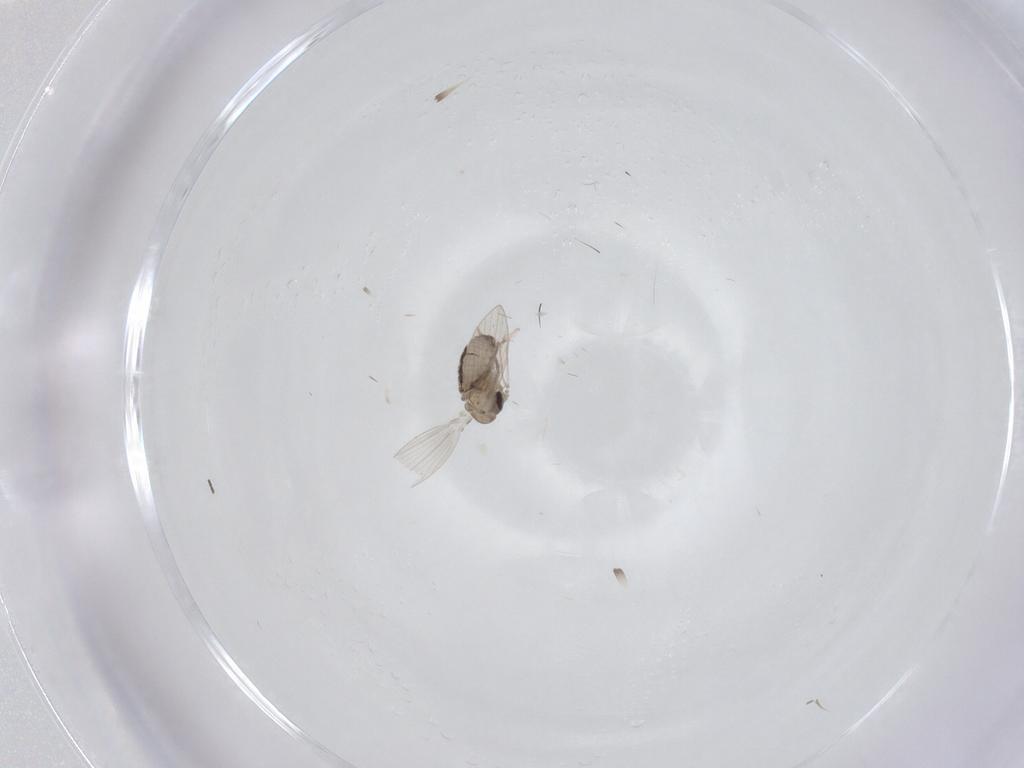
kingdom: Animalia
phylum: Arthropoda
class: Insecta
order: Diptera
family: Psychodidae
